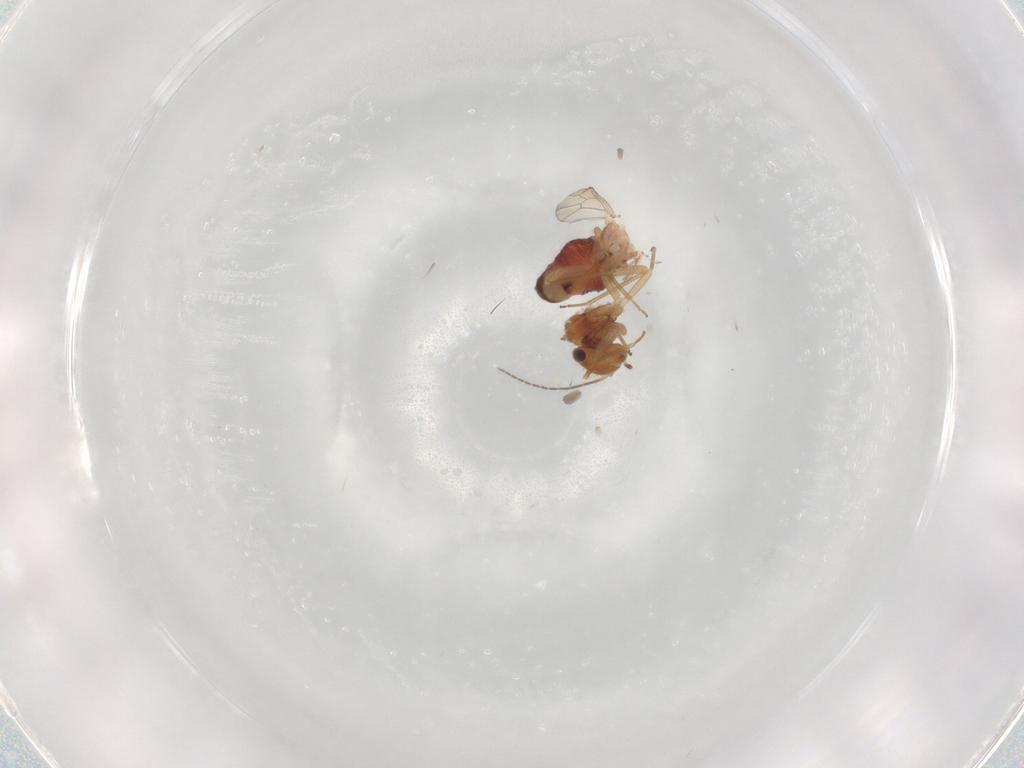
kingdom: Animalia
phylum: Arthropoda
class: Insecta
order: Psocodea
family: Ectopsocidae
